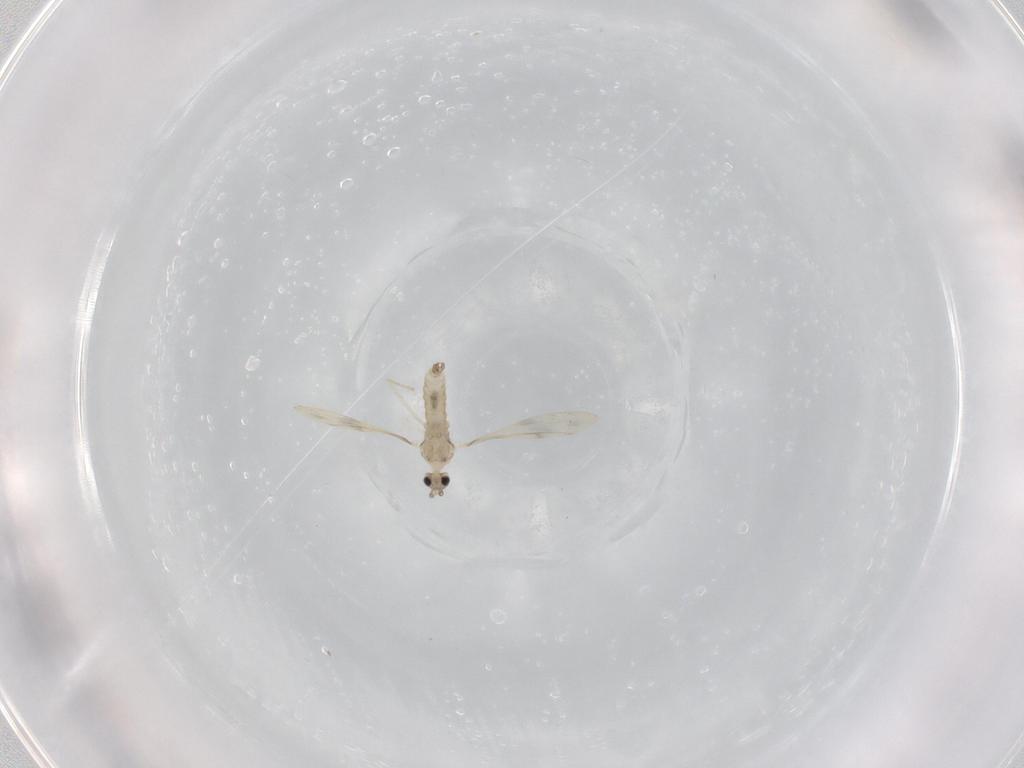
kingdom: Animalia
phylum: Arthropoda
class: Insecta
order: Diptera
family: Cecidomyiidae
